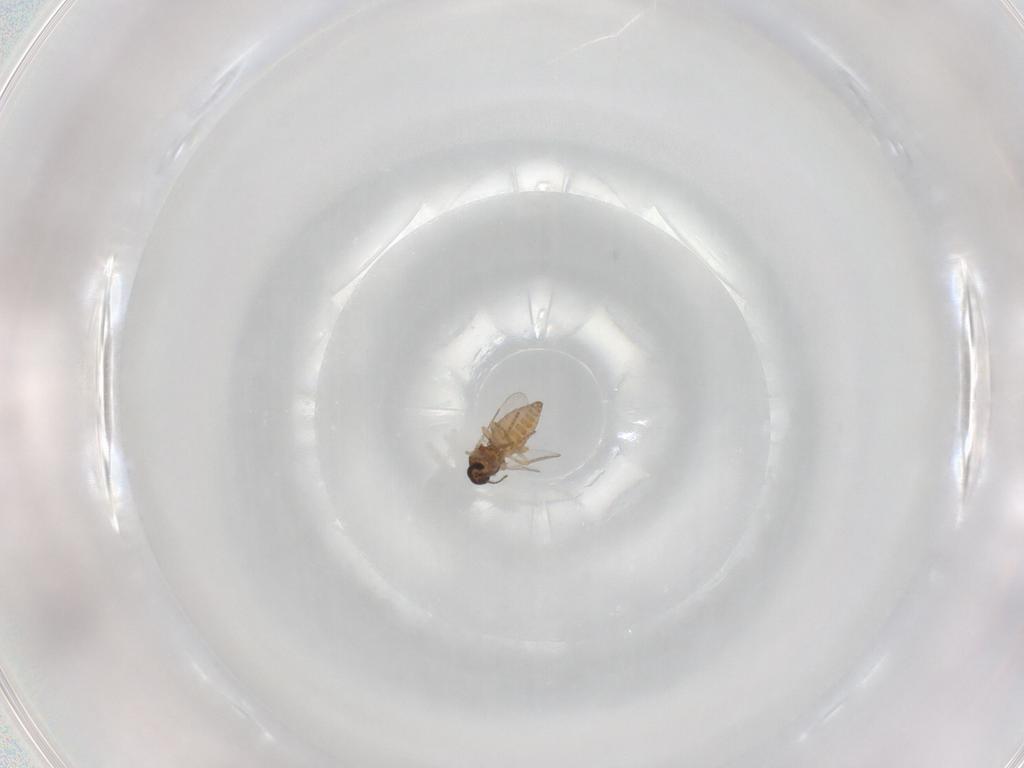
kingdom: Animalia
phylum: Arthropoda
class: Insecta
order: Diptera
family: Ceratopogonidae
